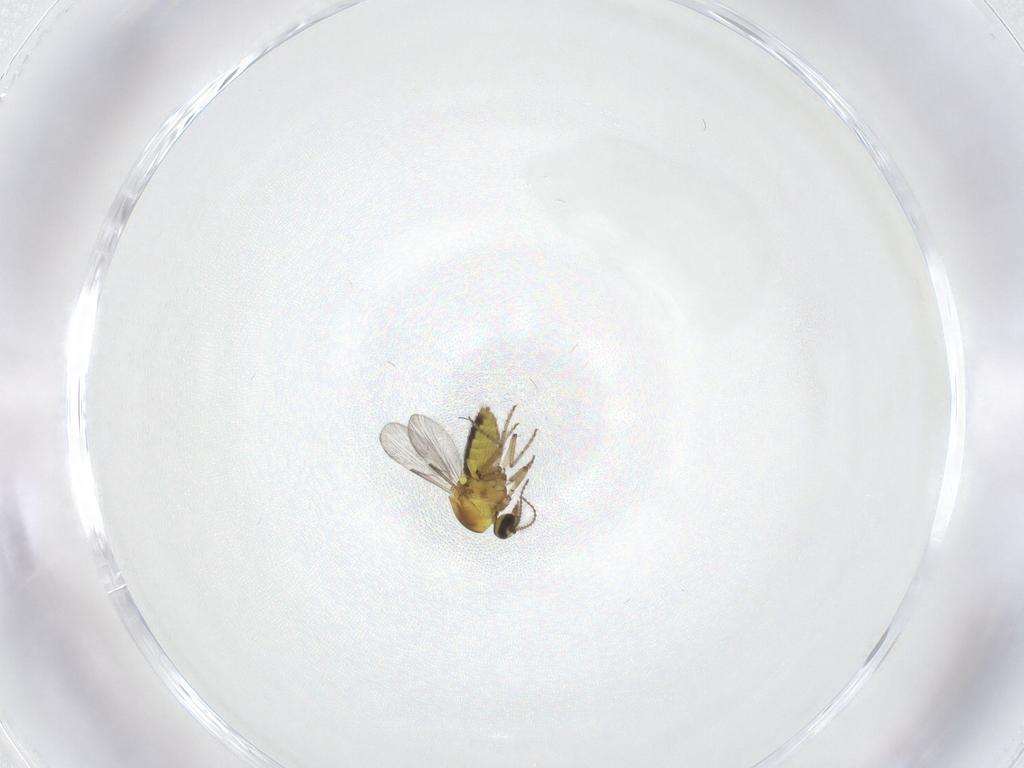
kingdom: Animalia
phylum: Arthropoda
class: Insecta
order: Diptera
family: Ceratopogonidae
